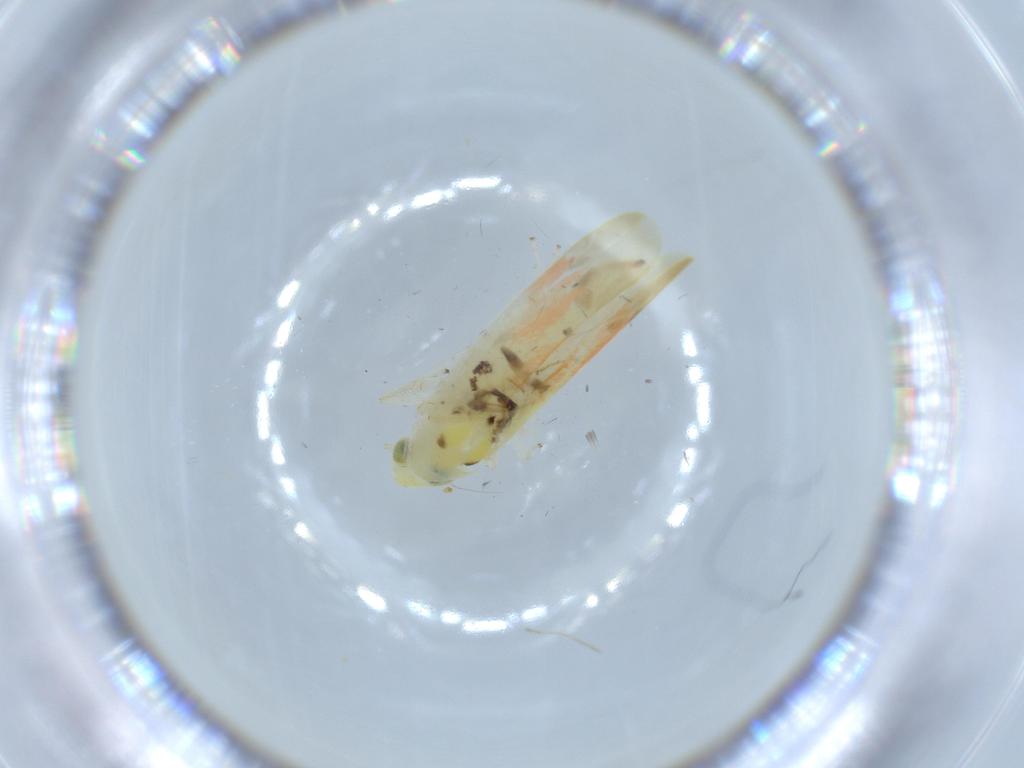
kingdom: Animalia
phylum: Arthropoda
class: Insecta
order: Hemiptera
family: Cicadellidae
